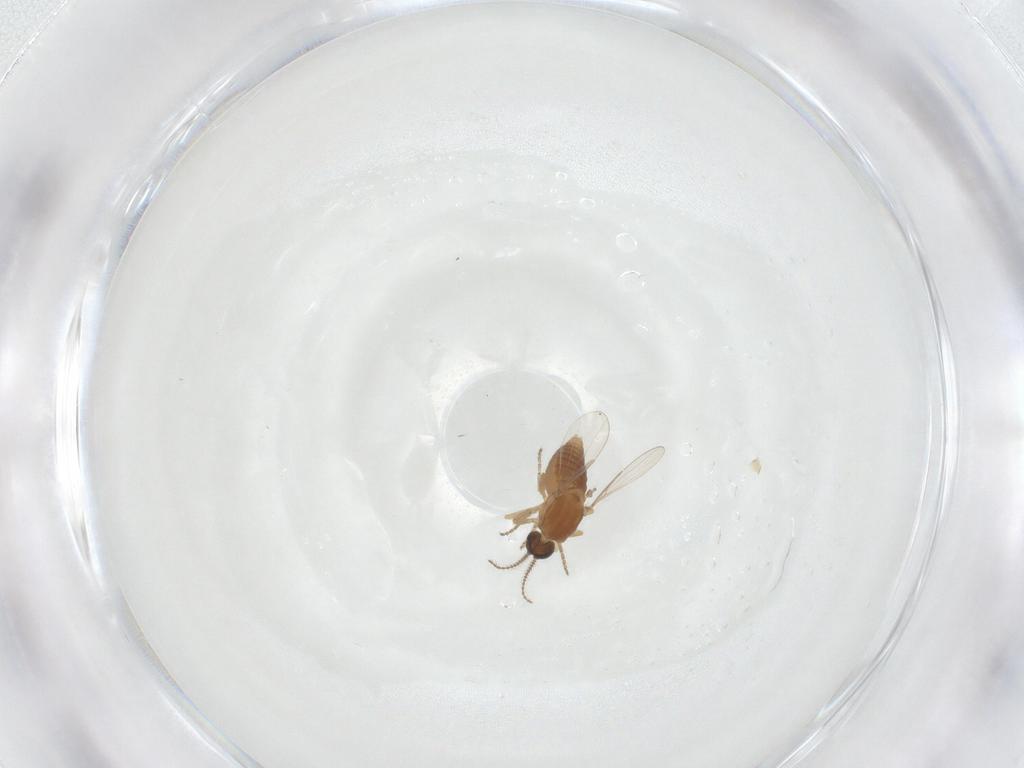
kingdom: Animalia
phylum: Arthropoda
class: Insecta
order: Diptera
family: Ceratopogonidae
